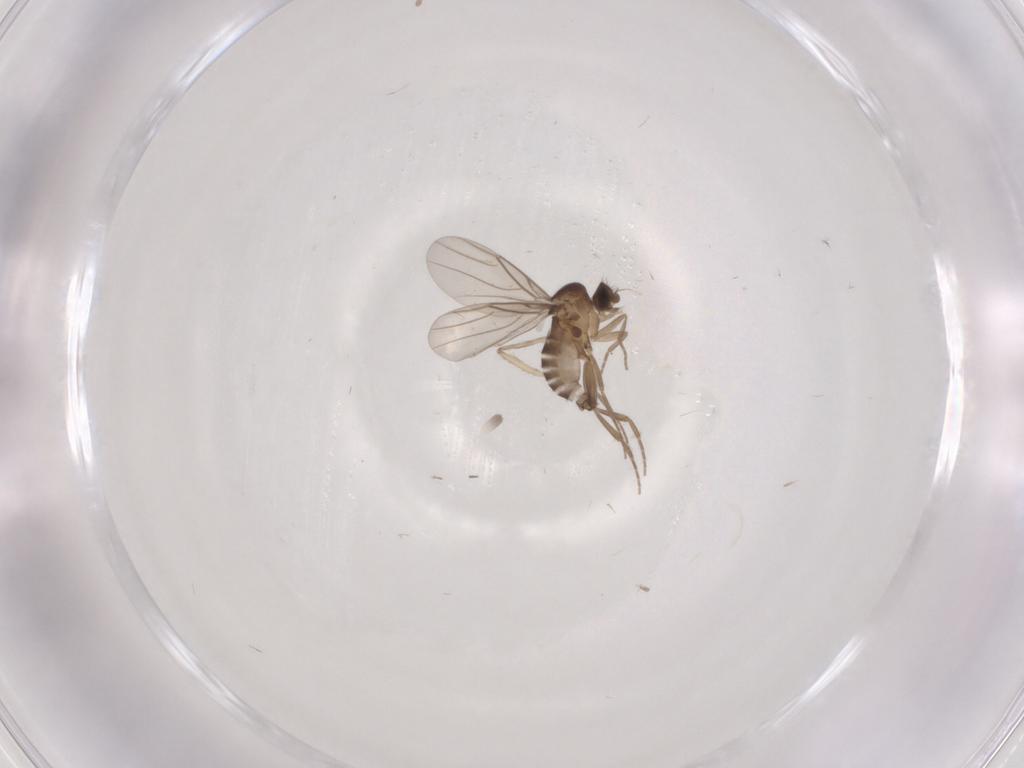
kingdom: Animalia
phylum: Arthropoda
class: Insecta
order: Diptera
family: Phoridae
